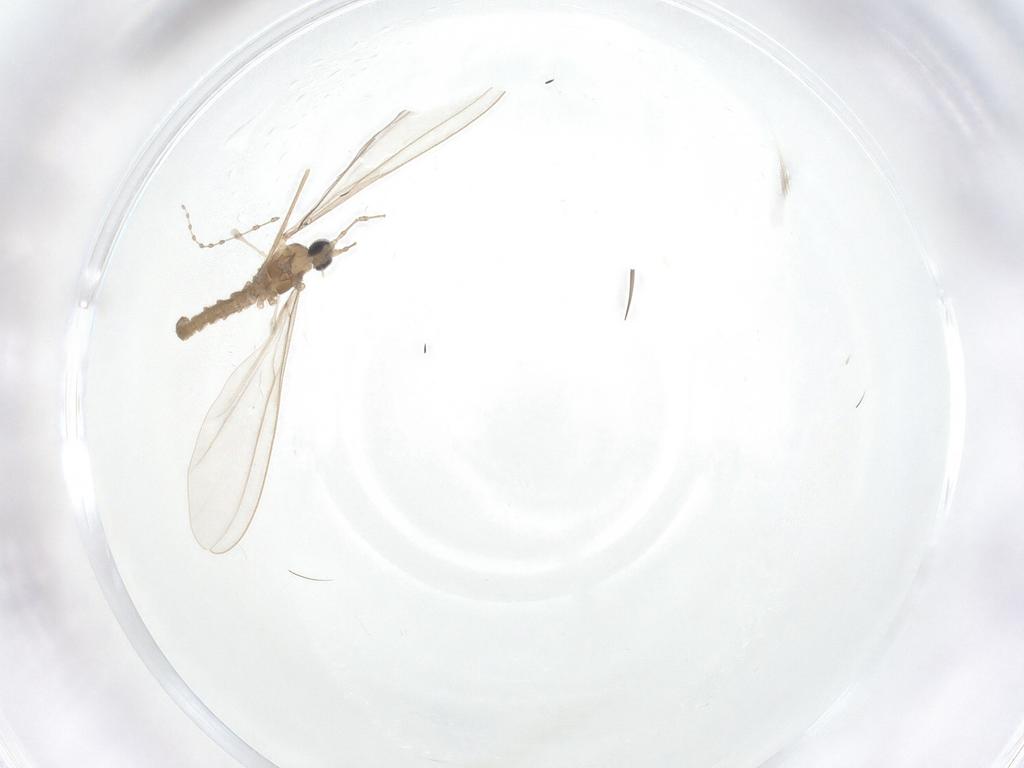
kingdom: Animalia
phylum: Arthropoda
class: Insecta
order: Diptera
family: Cecidomyiidae
